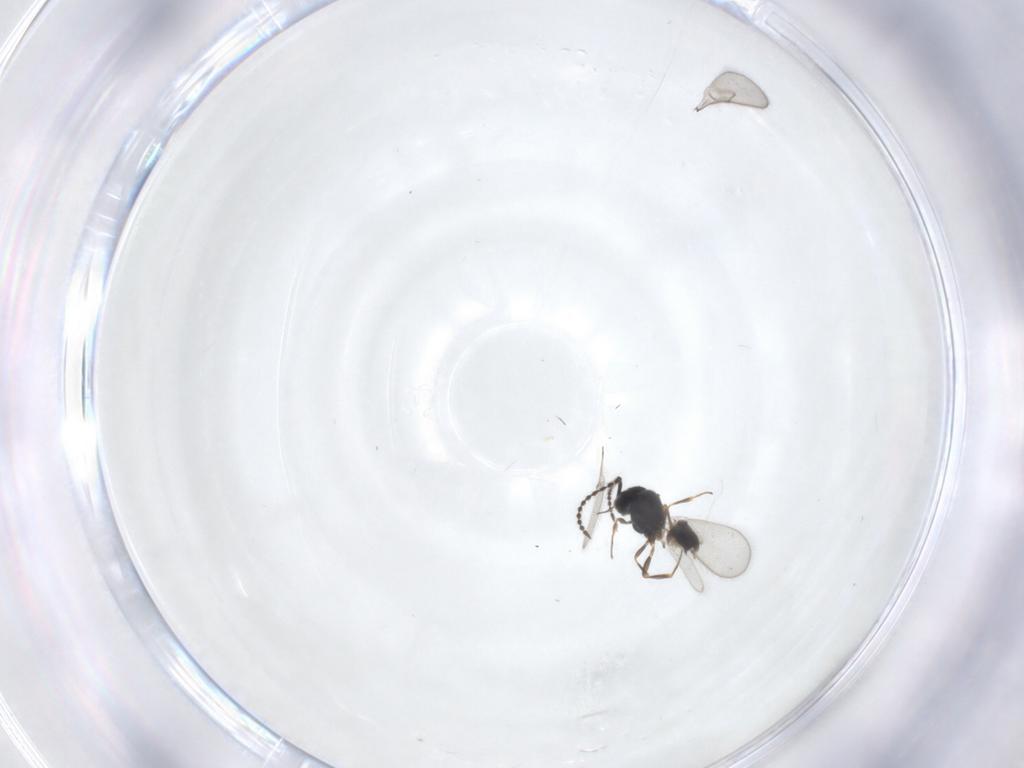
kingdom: Animalia
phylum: Arthropoda
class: Insecta
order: Hymenoptera
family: Scelionidae
